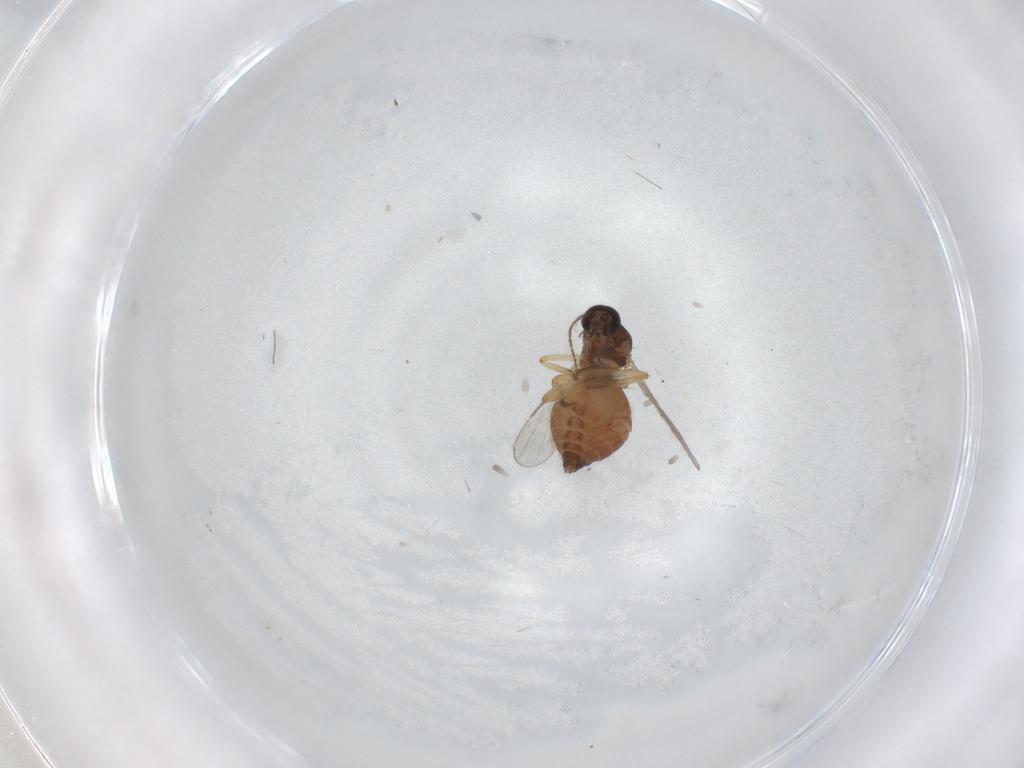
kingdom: Animalia
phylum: Arthropoda
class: Insecta
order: Diptera
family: Ceratopogonidae
